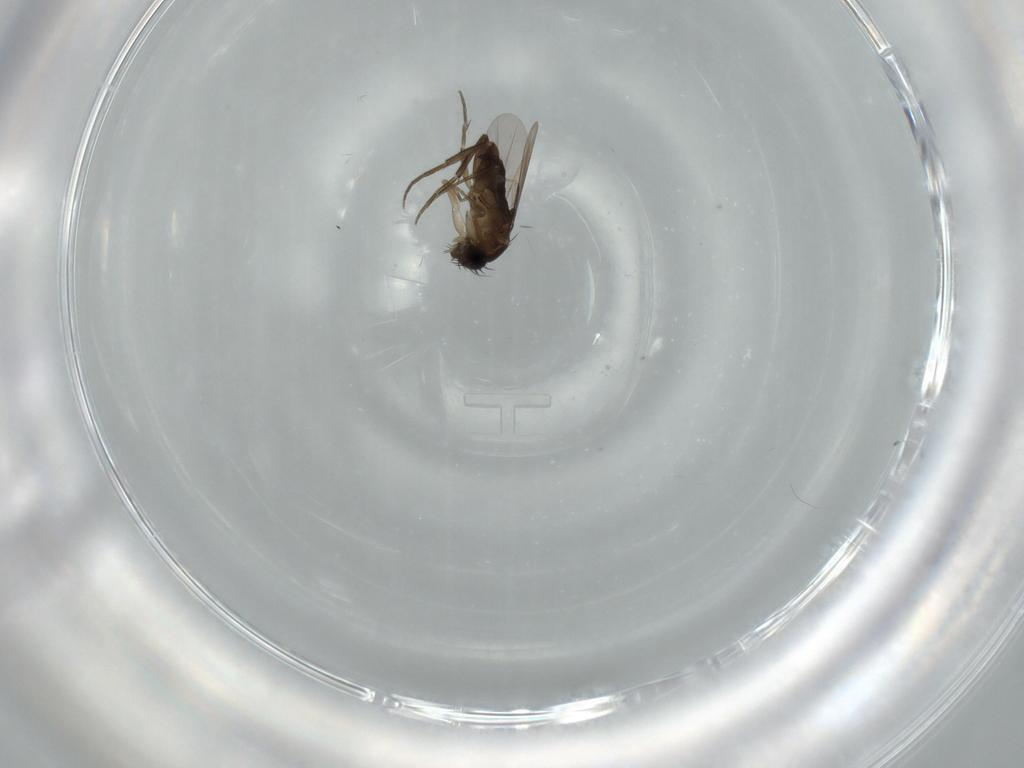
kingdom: Animalia
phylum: Arthropoda
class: Insecta
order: Diptera
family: Phoridae
